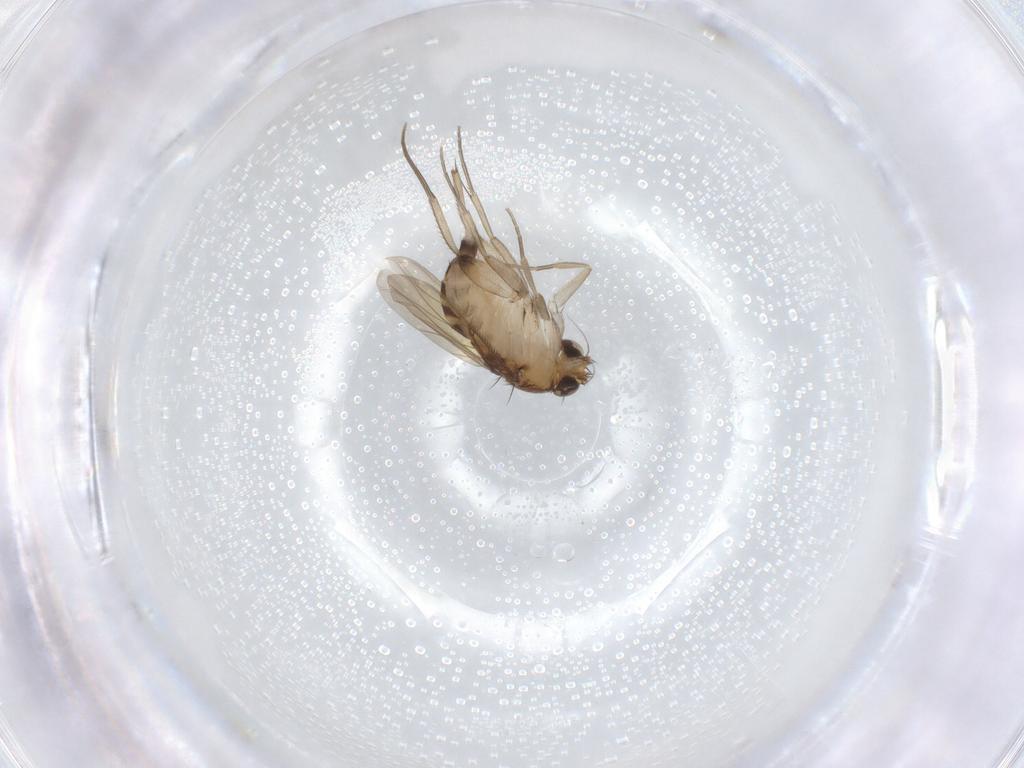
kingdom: Animalia
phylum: Arthropoda
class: Insecta
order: Diptera
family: Phoridae
